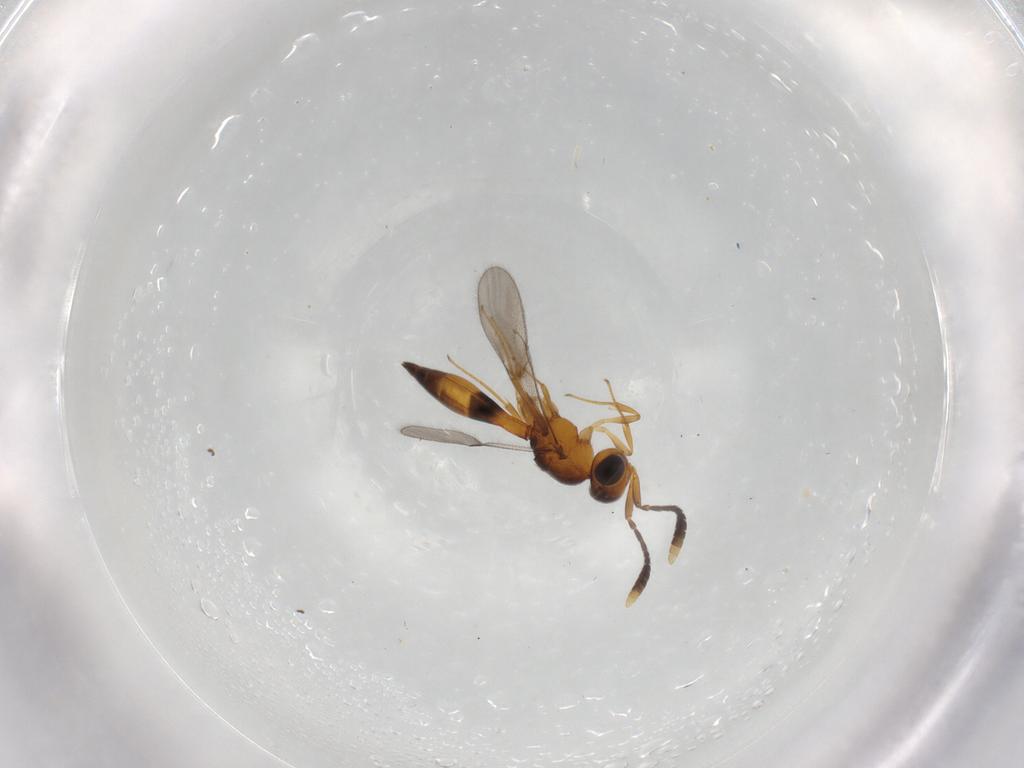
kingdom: Animalia
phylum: Arthropoda
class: Insecta
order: Hymenoptera
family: Scelionidae
